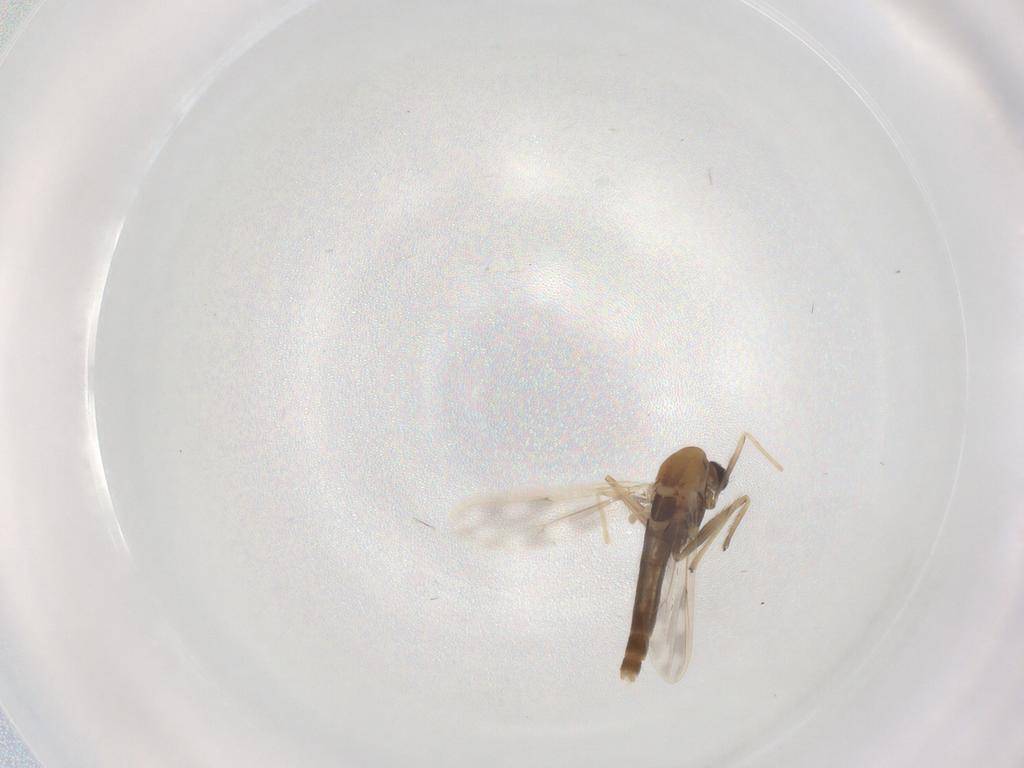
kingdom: Animalia
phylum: Arthropoda
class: Insecta
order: Diptera
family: Chironomidae
